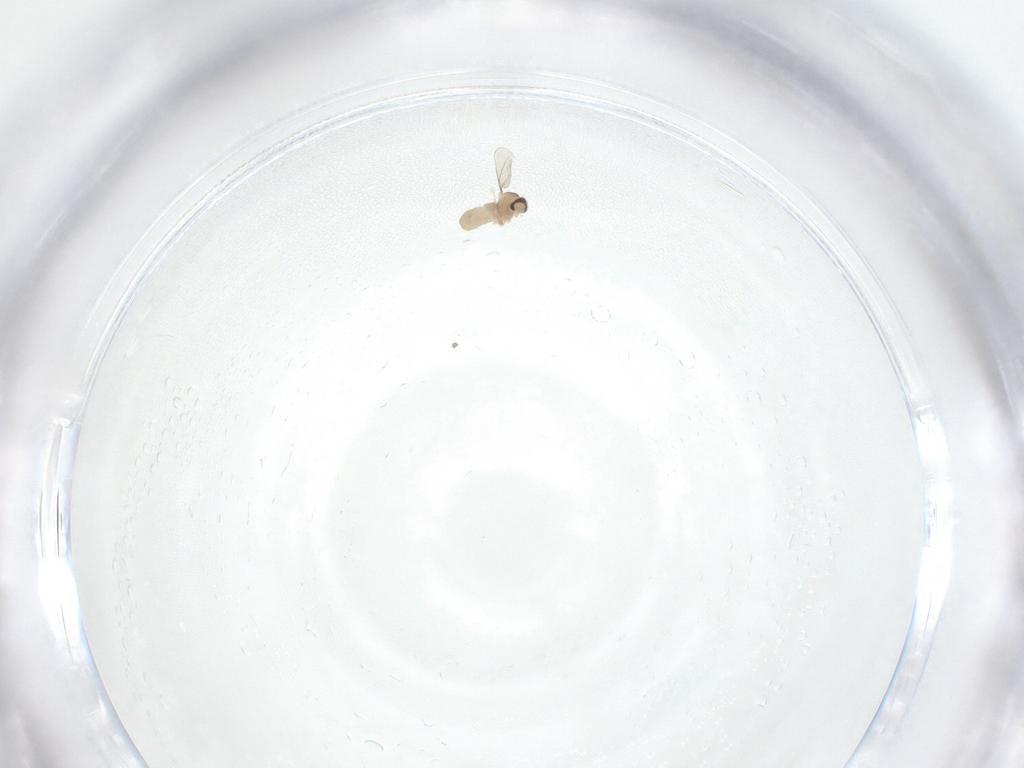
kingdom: Animalia
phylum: Arthropoda
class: Insecta
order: Diptera
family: Cecidomyiidae
